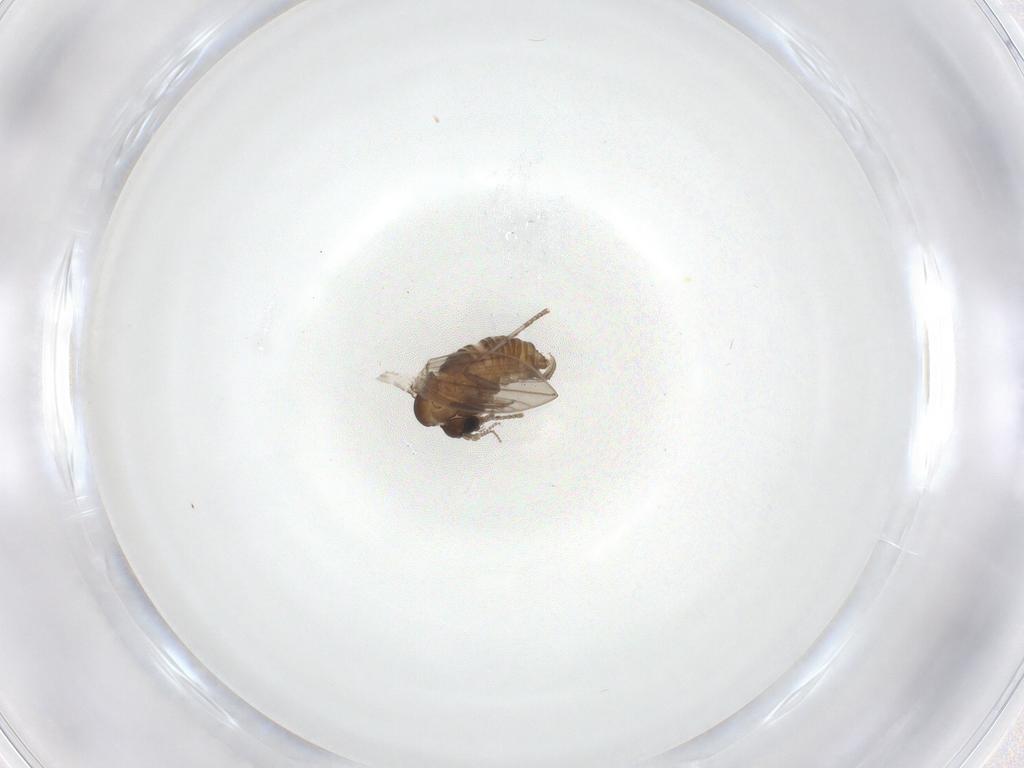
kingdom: Animalia
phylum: Arthropoda
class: Insecta
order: Diptera
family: Psychodidae
